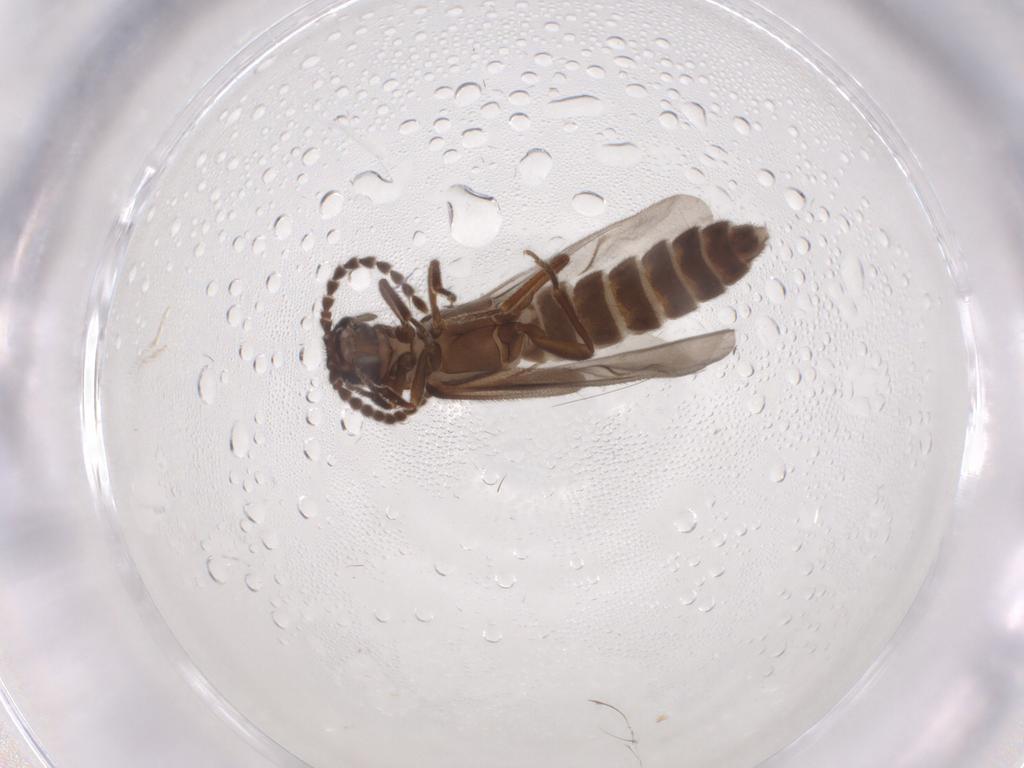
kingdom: Animalia
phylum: Arthropoda
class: Insecta
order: Coleoptera
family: Omethidae
